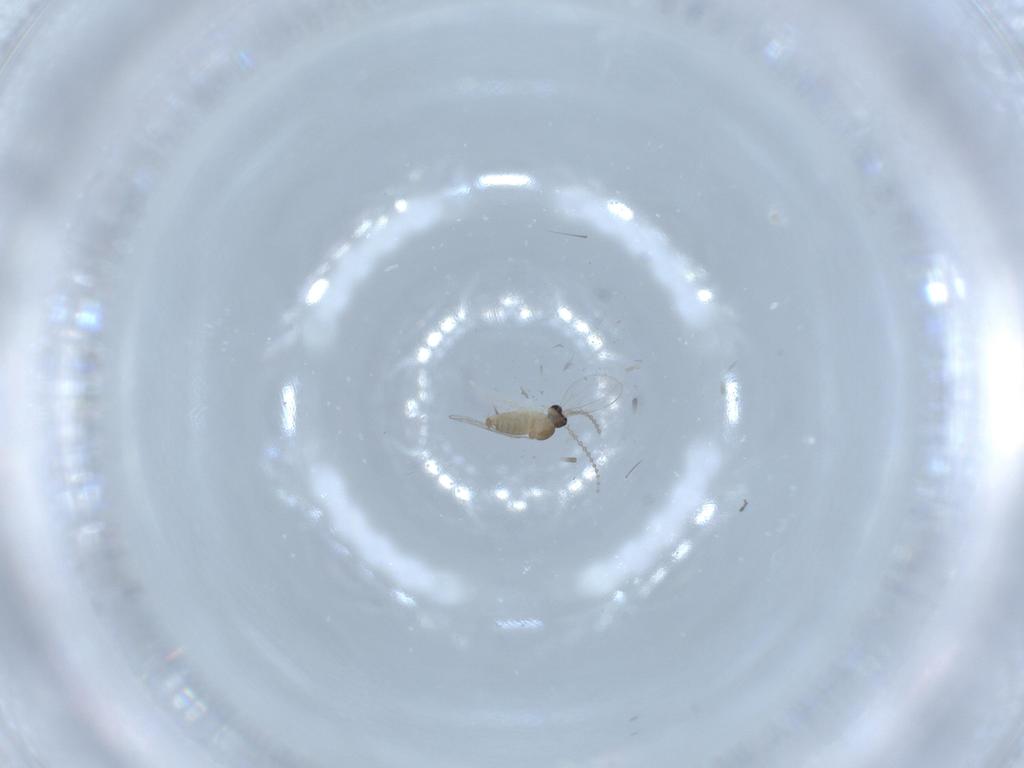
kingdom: Animalia
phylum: Arthropoda
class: Insecta
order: Diptera
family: Cecidomyiidae
